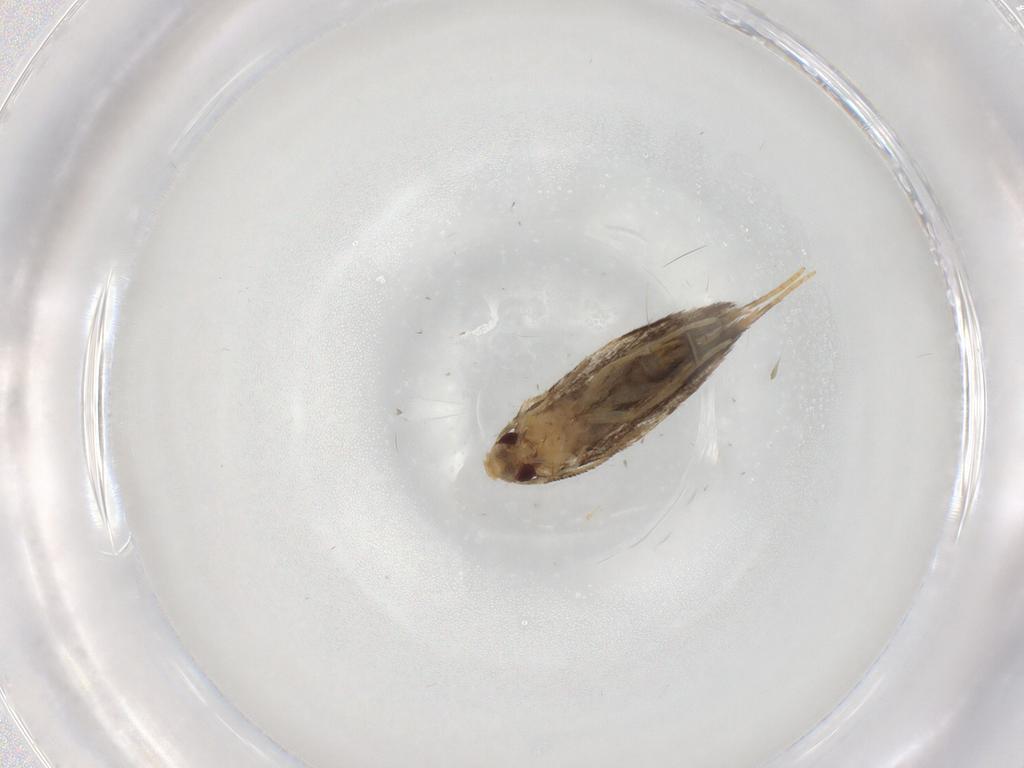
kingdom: Animalia
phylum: Arthropoda
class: Insecta
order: Lepidoptera
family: Gelechiidae
